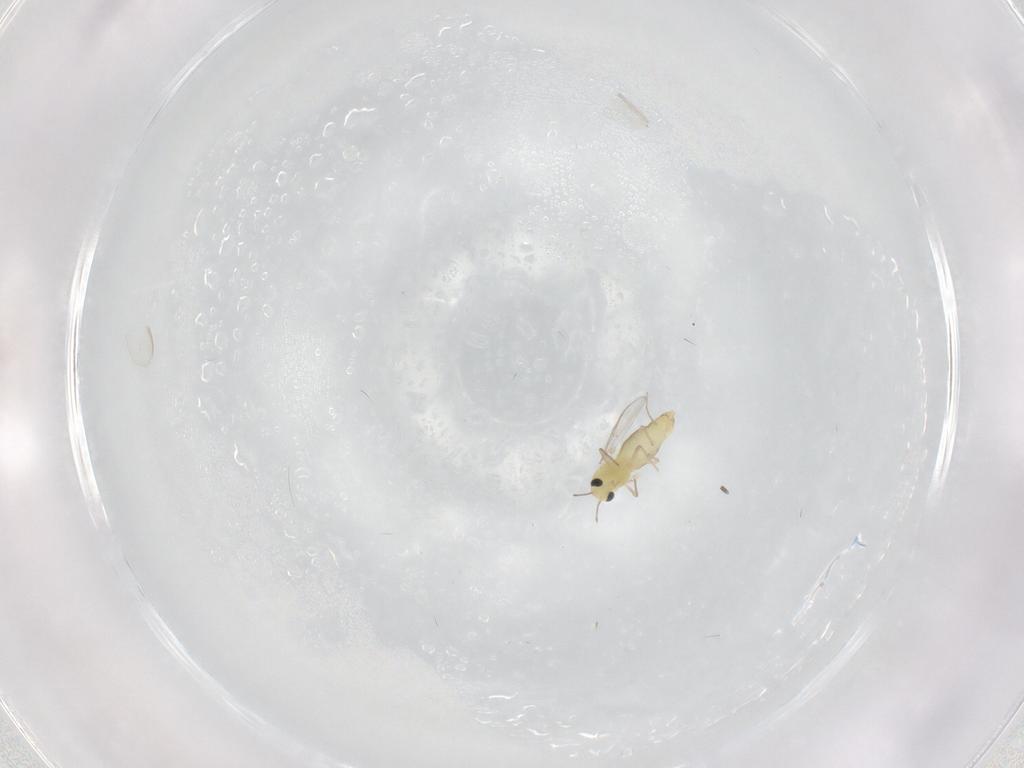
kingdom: Animalia
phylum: Arthropoda
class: Insecta
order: Diptera
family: Chironomidae
